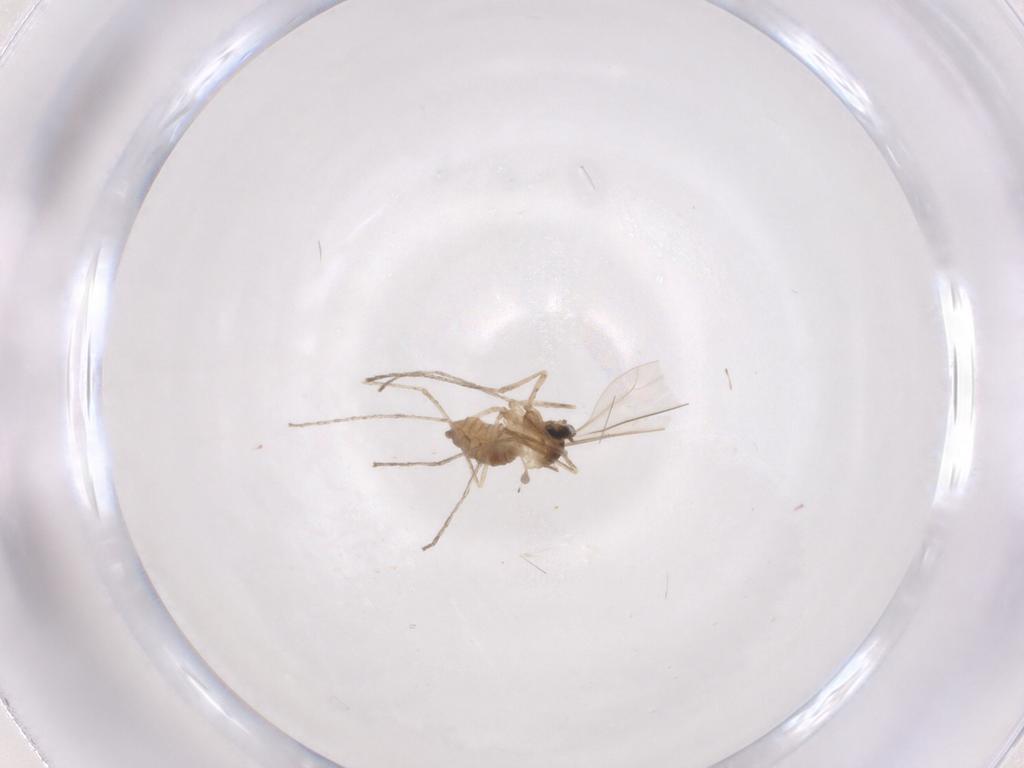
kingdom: Animalia
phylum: Arthropoda
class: Insecta
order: Diptera
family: Cecidomyiidae
